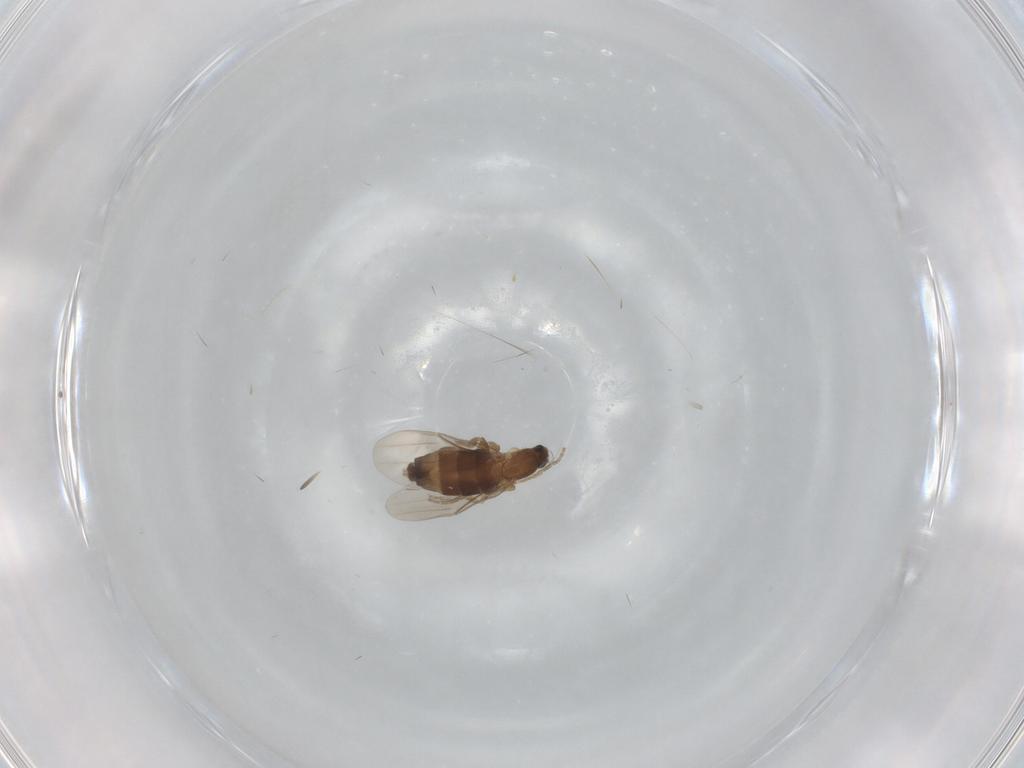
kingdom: Animalia
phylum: Arthropoda
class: Insecta
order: Diptera
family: Phoridae
